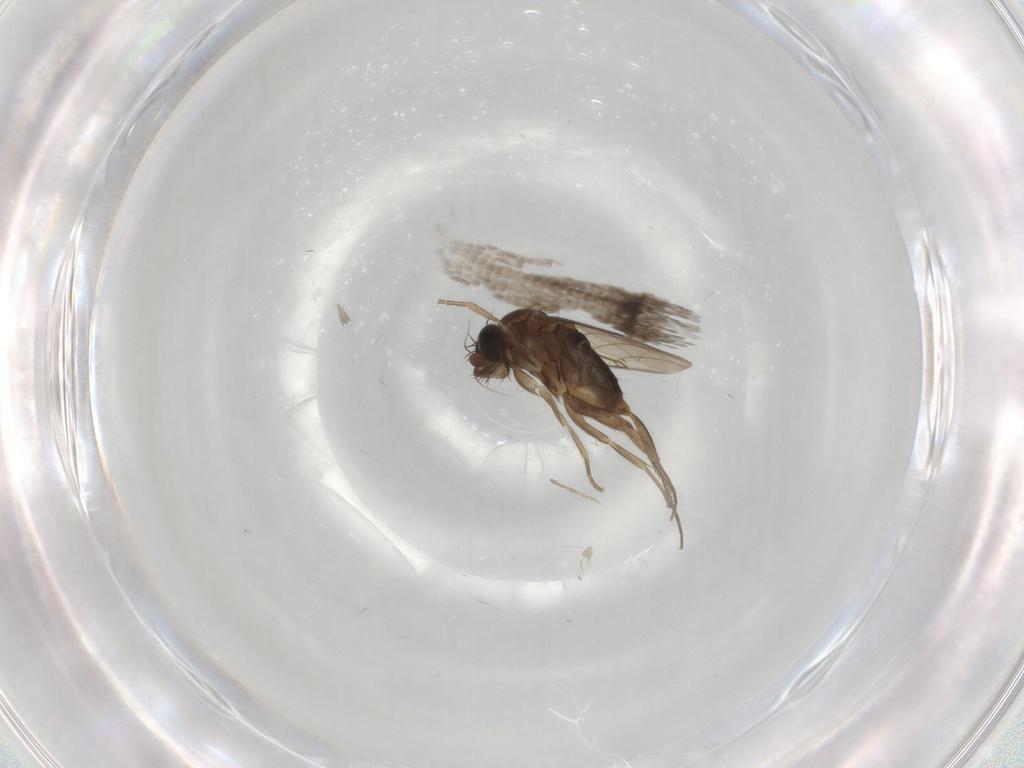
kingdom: Animalia
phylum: Arthropoda
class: Insecta
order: Diptera
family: Phoridae
